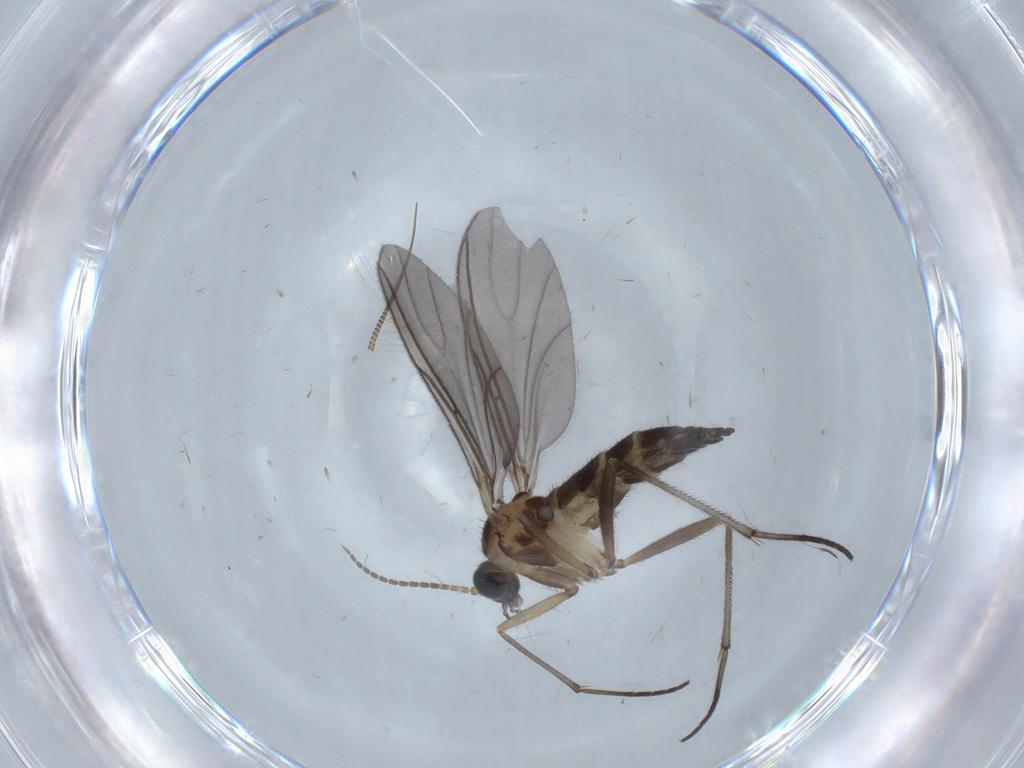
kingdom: Animalia
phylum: Arthropoda
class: Insecta
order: Diptera
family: Sciaridae
